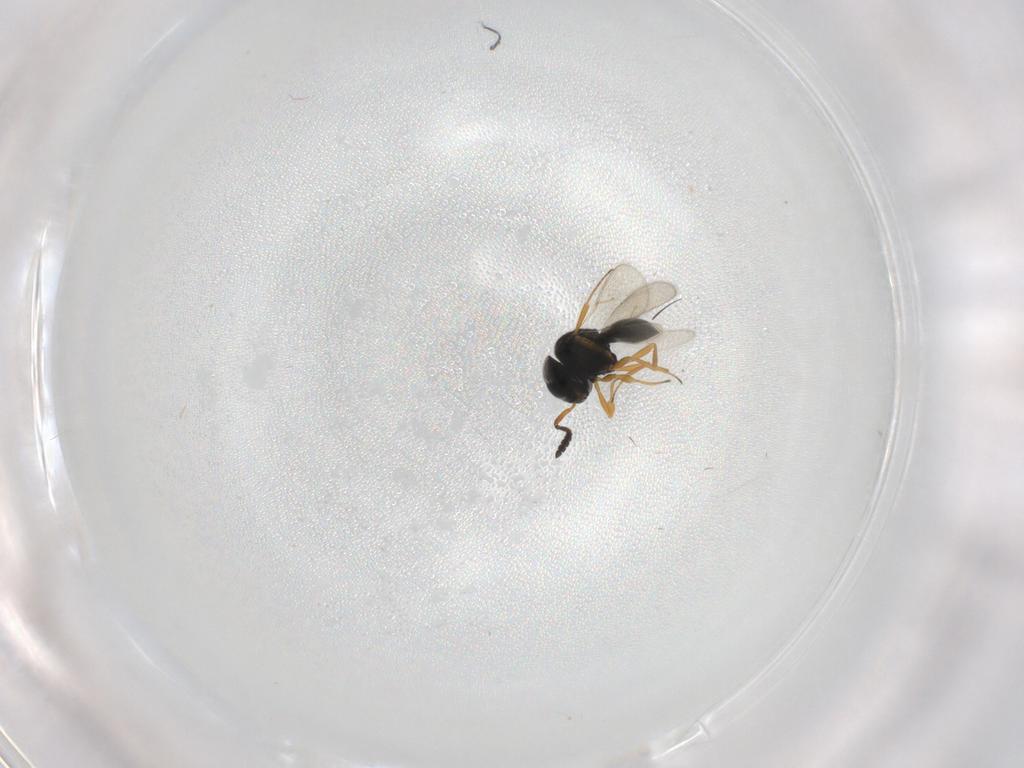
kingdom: Animalia
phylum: Arthropoda
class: Insecta
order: Hymenoptera
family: Scelionidae
